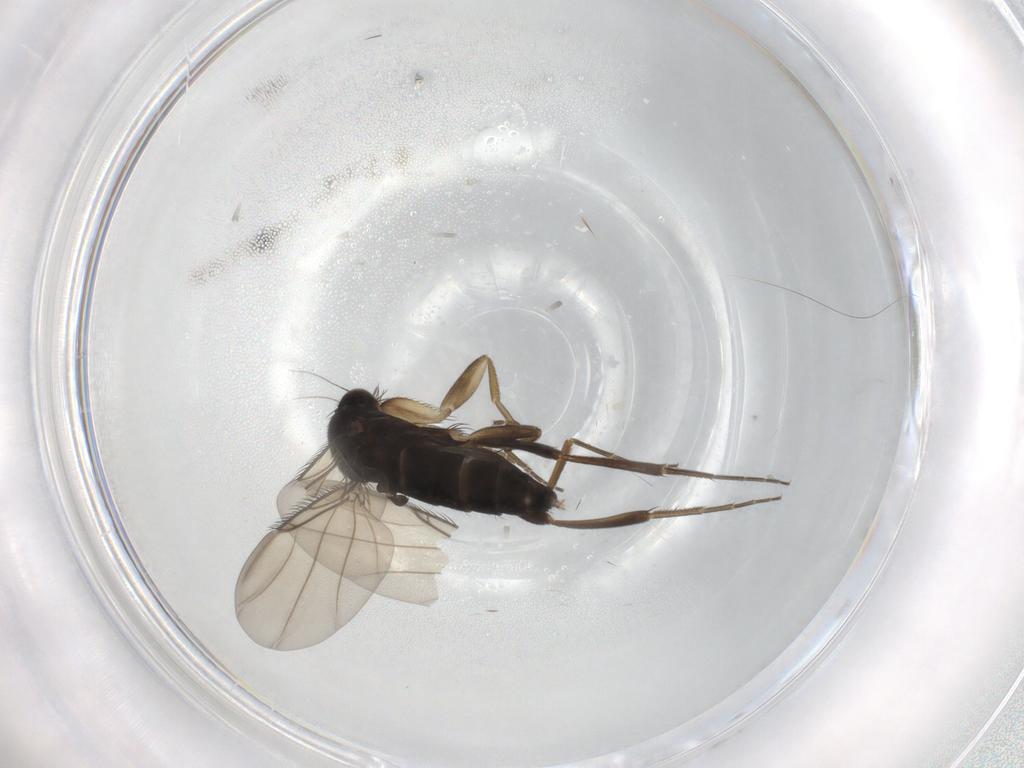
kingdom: Animalia
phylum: Arthropoda
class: Insecta
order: Diptera
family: Phoridae
